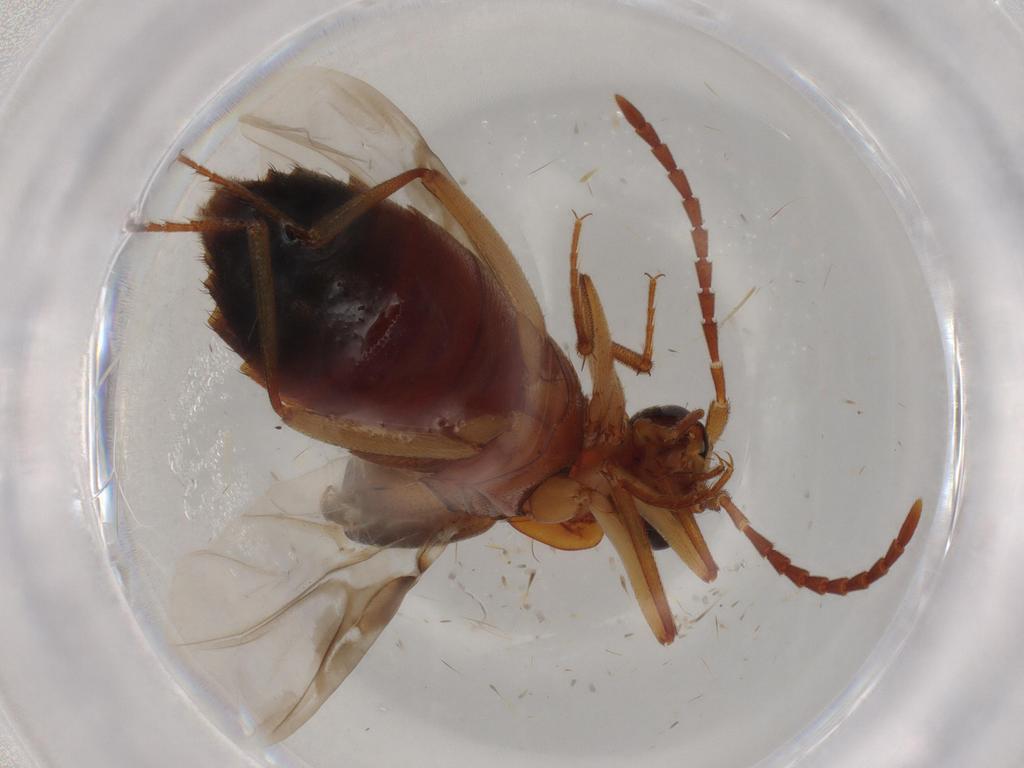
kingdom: Animalia
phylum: Arthropoda
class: Insecta
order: Coleoptera
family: Staphylinidae
